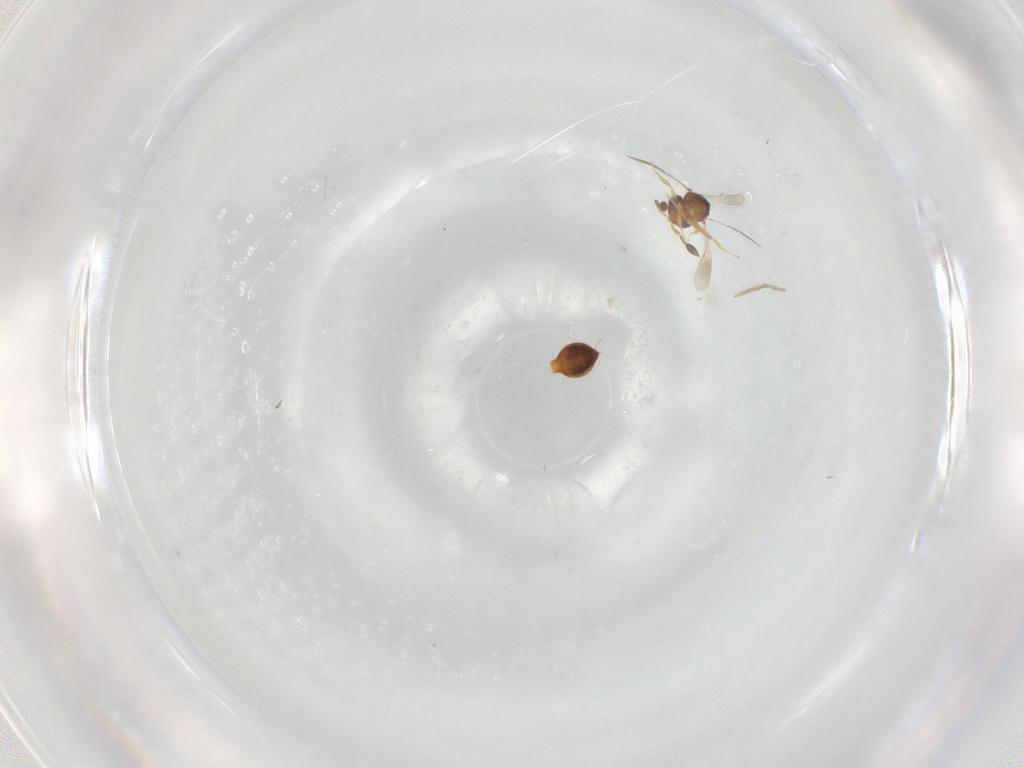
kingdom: Animalia
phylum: Arthropoda
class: Insecta
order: Hymenoptera
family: Scelionidae
